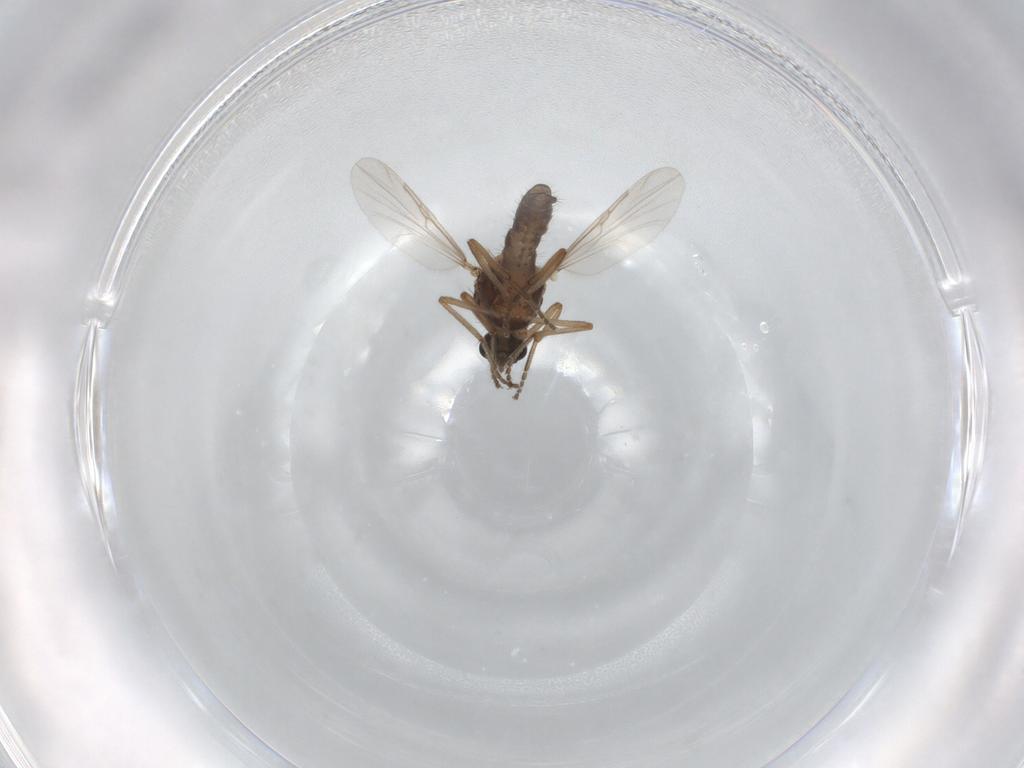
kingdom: Animalia
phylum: Arthropoda
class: Insecta
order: Diptera
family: Ceratopogonidae
